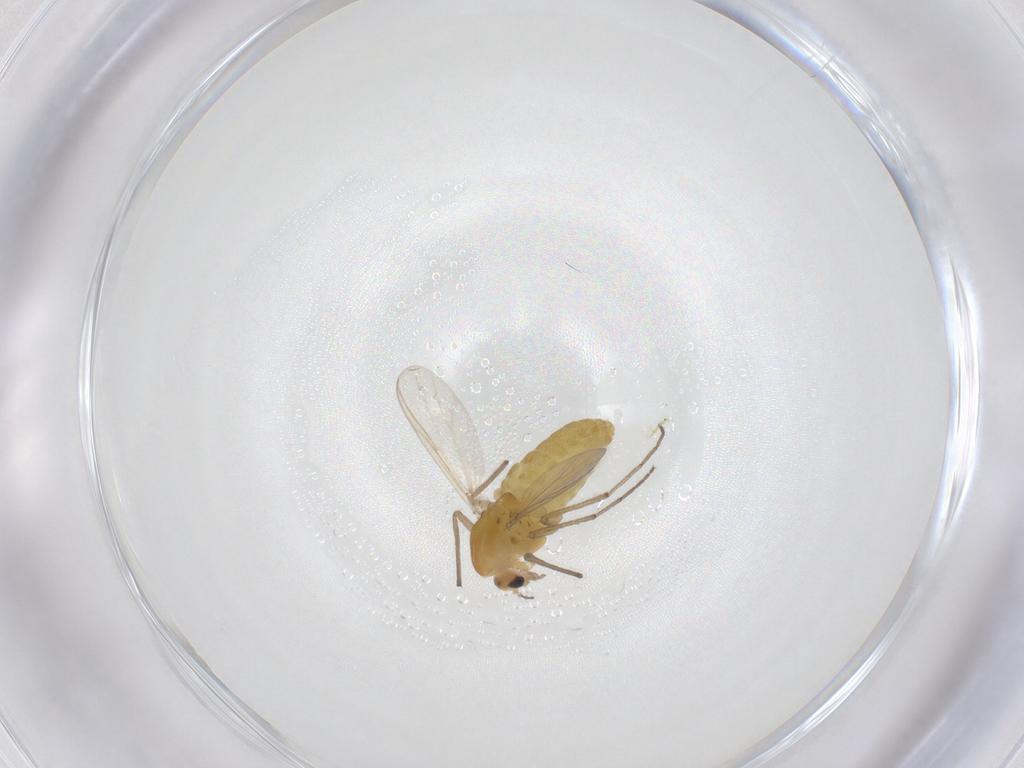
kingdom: Animalia
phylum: Arthropoda
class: Insecta
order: Diptera
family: Chironomidae
